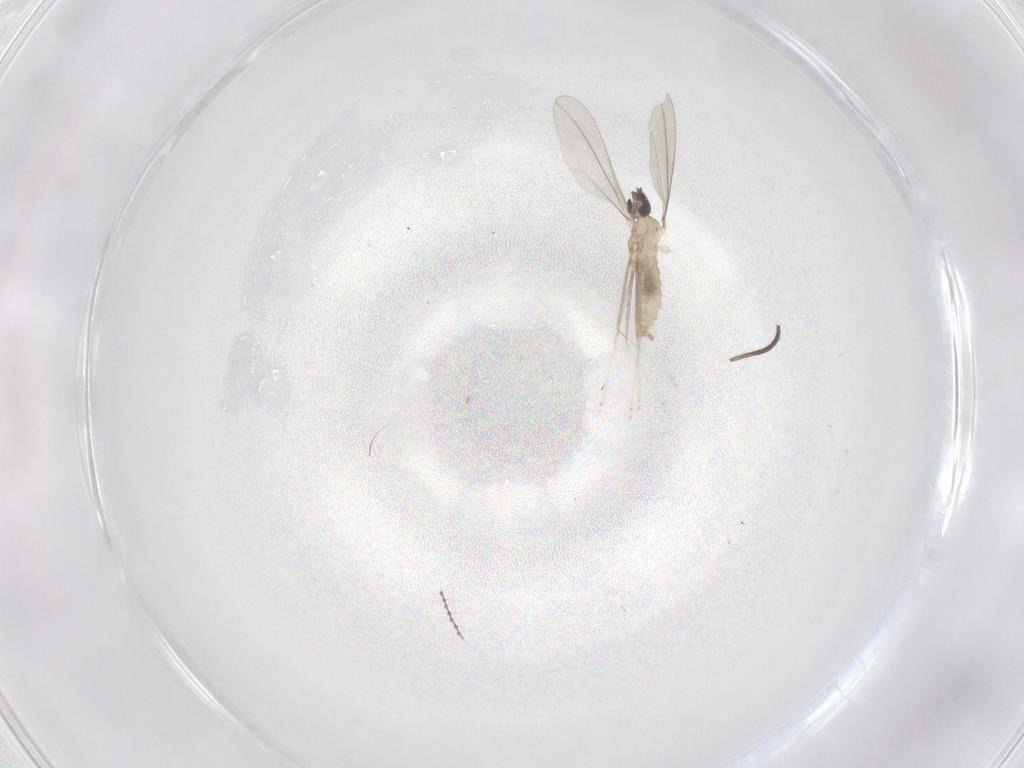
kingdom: Animalia
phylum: Arthropoda
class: Insecta
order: Diptera
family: Cecidomyiidae
